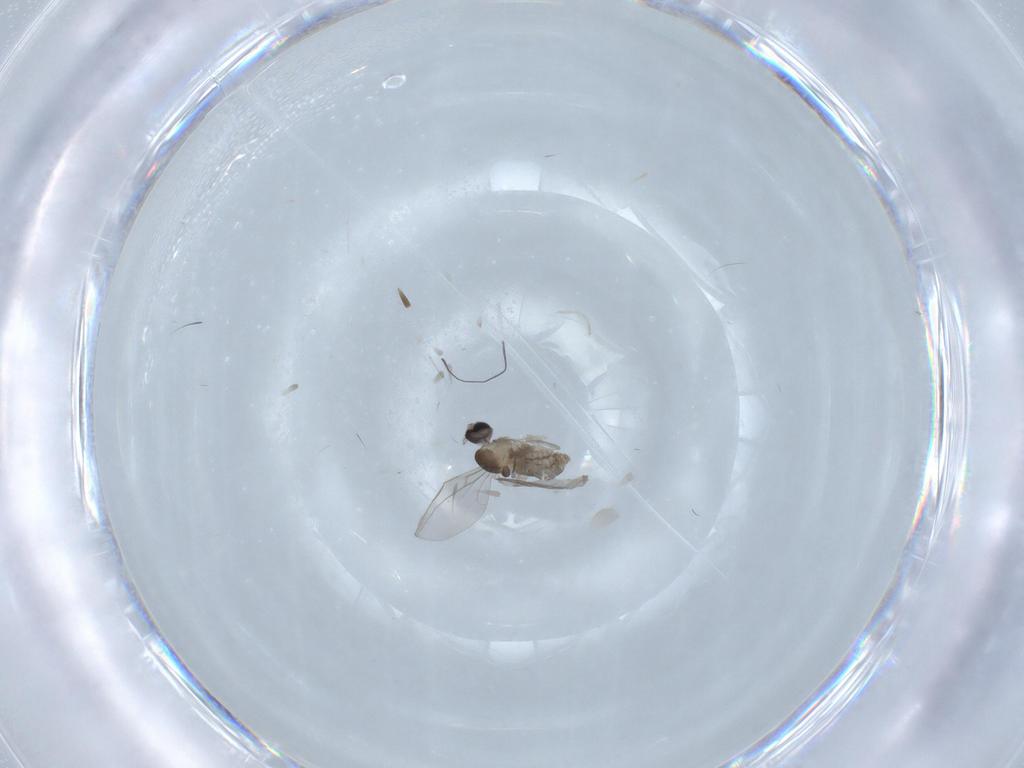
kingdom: Animalia
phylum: Arthropoda
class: Insecta
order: Diptera
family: Cecidomyiidae
